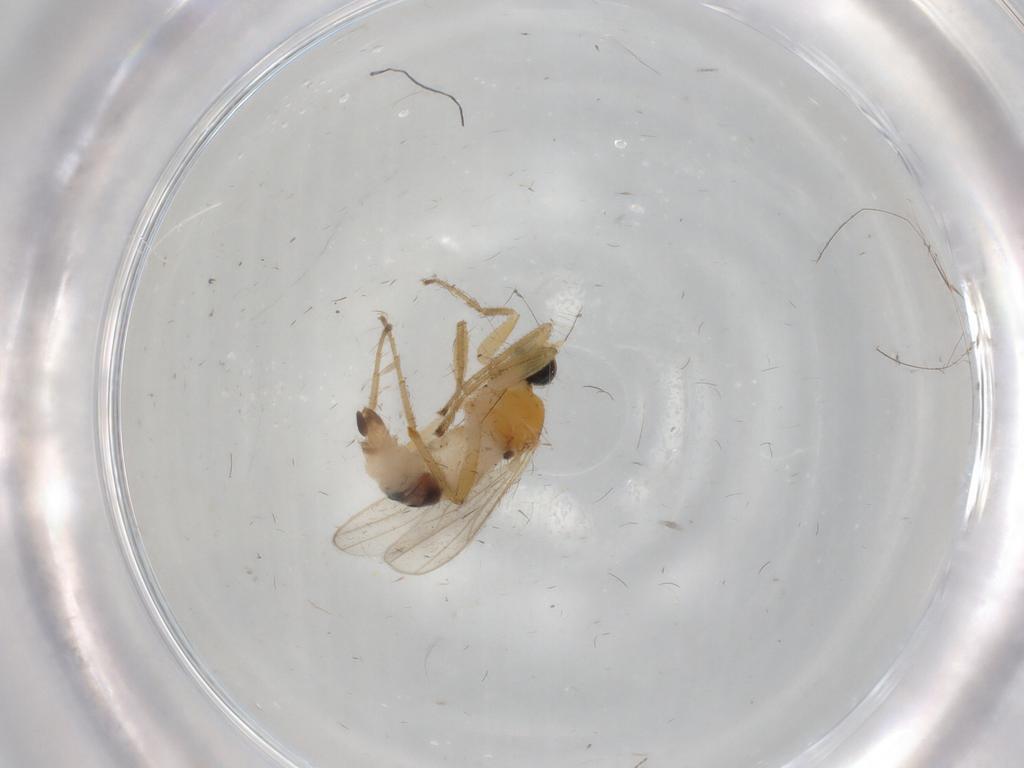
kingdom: Animalia
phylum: Arthropoda
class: Insecta
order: Diptera
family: Hybotidae
